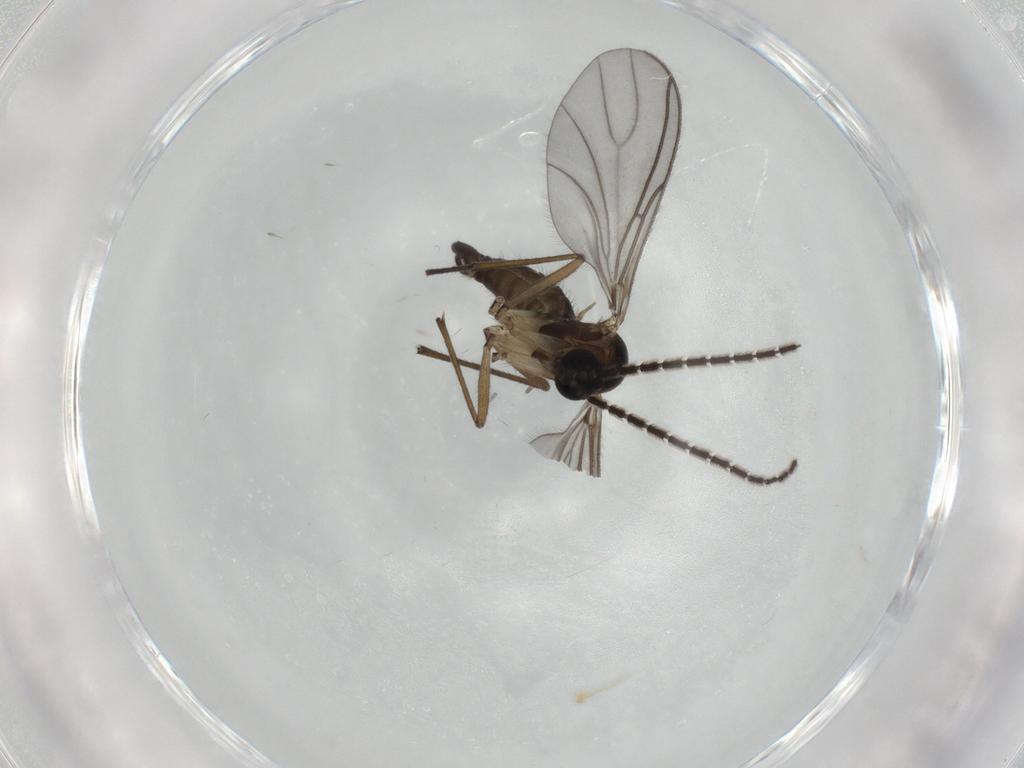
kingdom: Animalia
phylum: Arthropoda
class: Insecta
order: Diptera
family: Sciaridae
